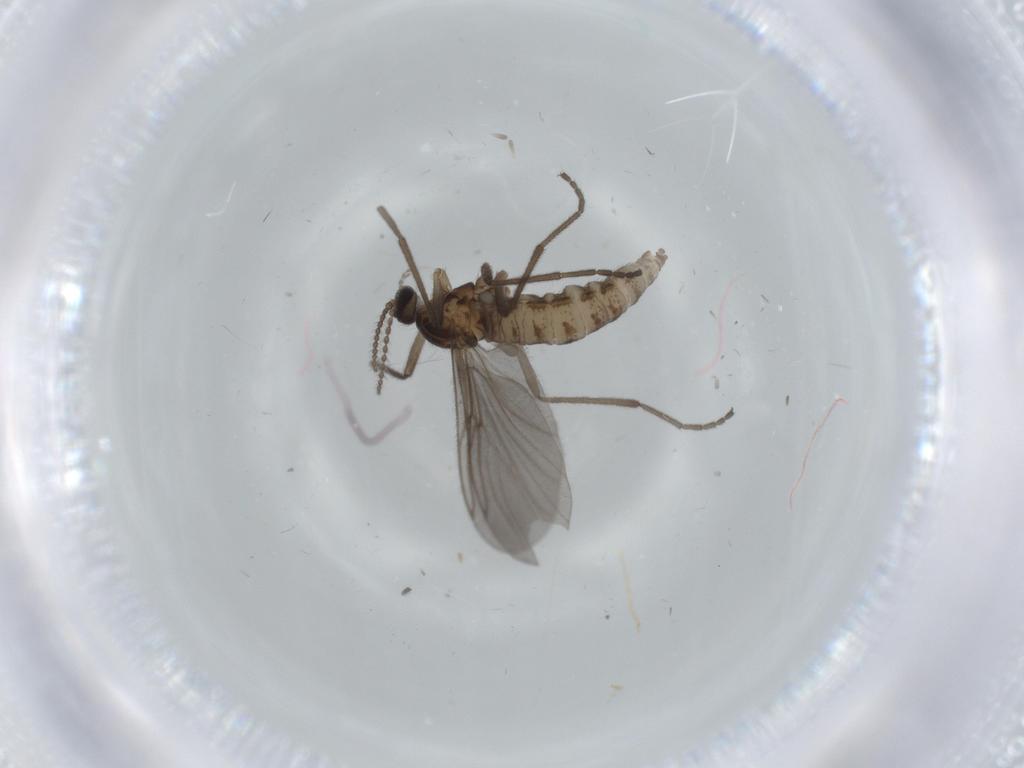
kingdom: Animalia
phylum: Arthropoda
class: Insecta
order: Diptera
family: Cecidomyiidae
